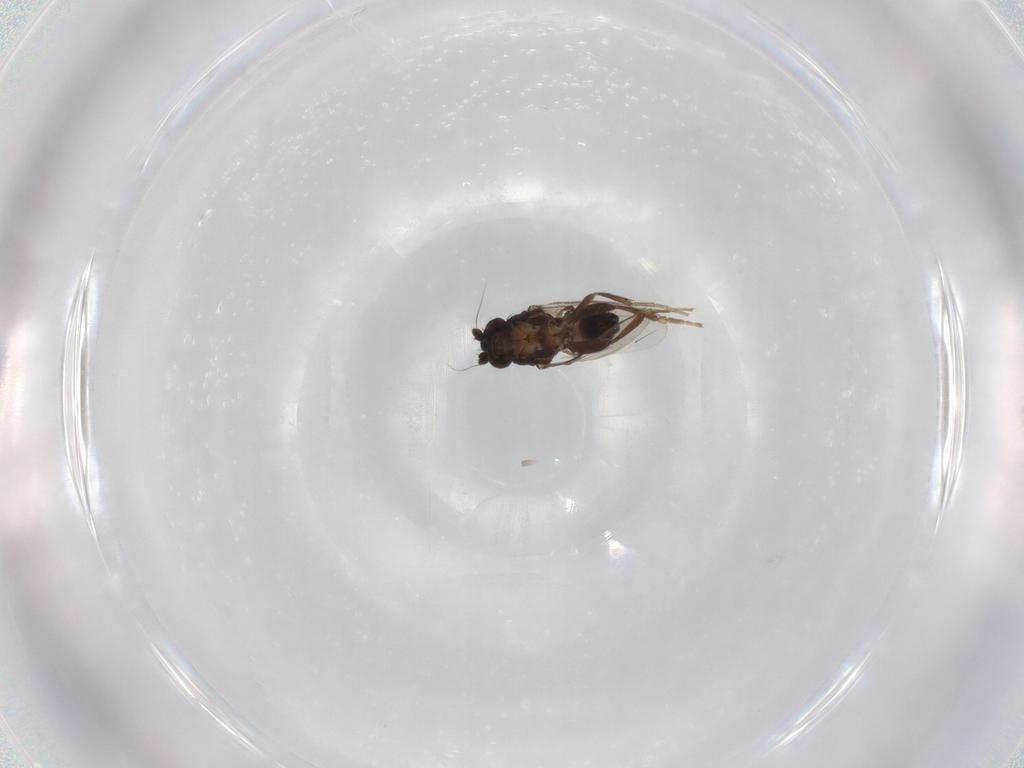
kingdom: Animalia
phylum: Arthropoda
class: Insecta
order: Diptera
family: Sphaeroceridae
